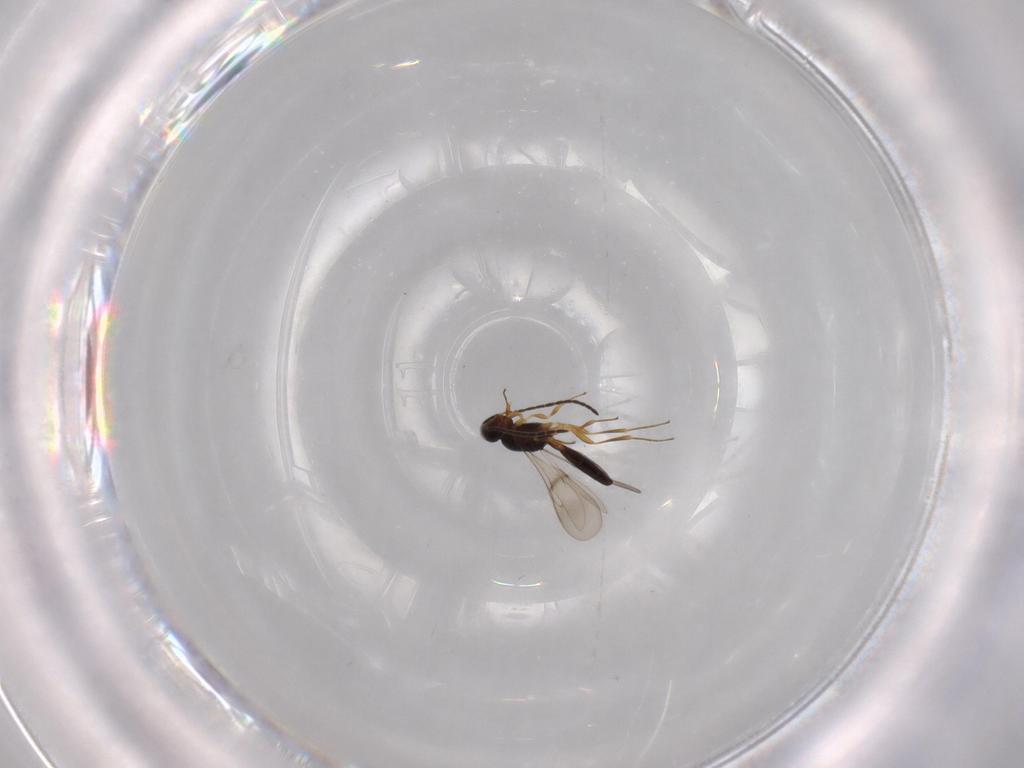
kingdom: Animalia
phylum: Arthropoda
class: Insecta
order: Hymenoptera
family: Scelionidae
